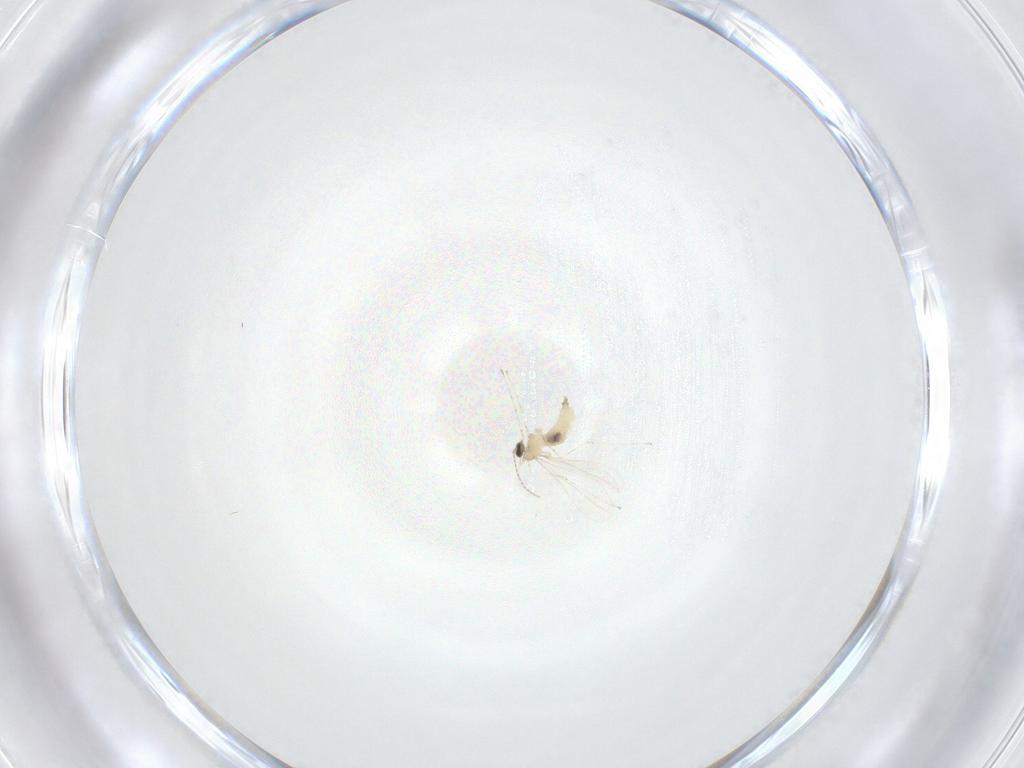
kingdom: Animalia
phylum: Arthropoda
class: Insecta
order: Diptera
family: Cecidomyiidae
